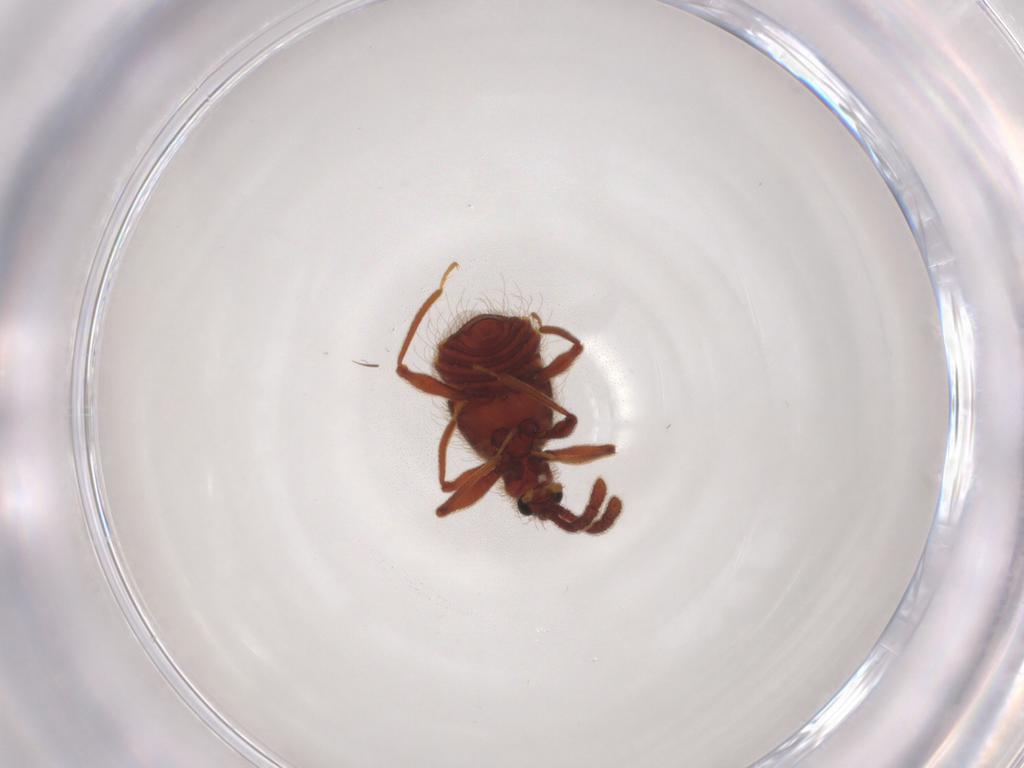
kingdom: Animalia
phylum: Arthropoda
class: Insecta
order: Coleoptera
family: Staphylinidae
